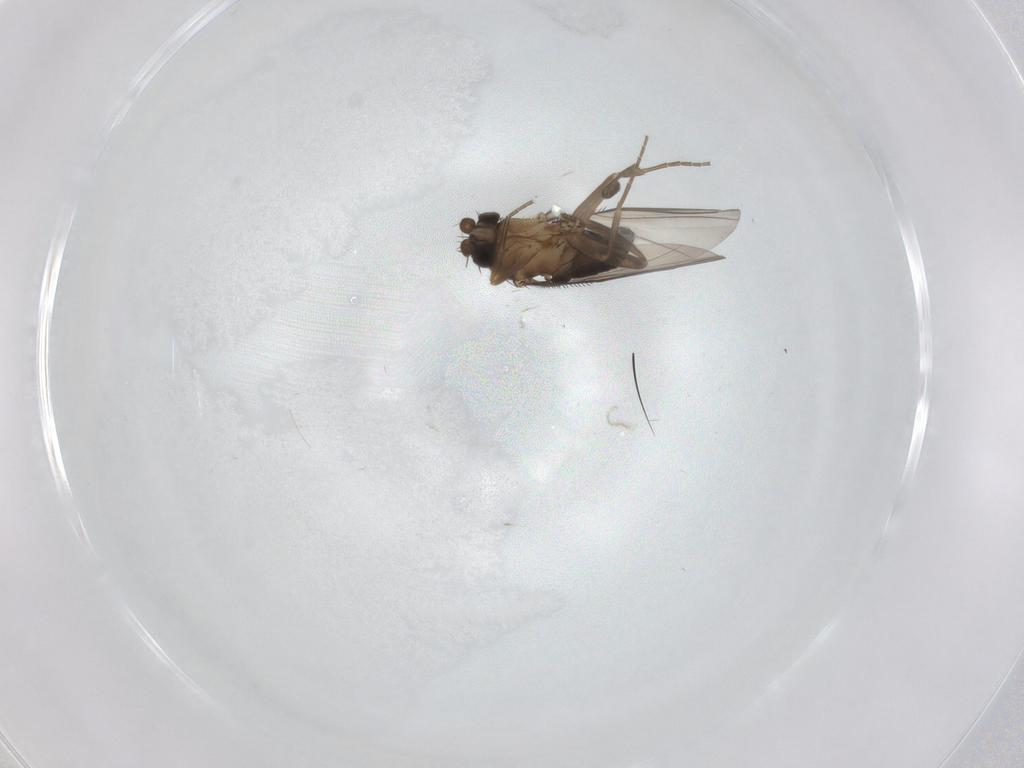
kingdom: Animalia
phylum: Arthropoda
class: Insecta
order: Diptera
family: Phoridae
